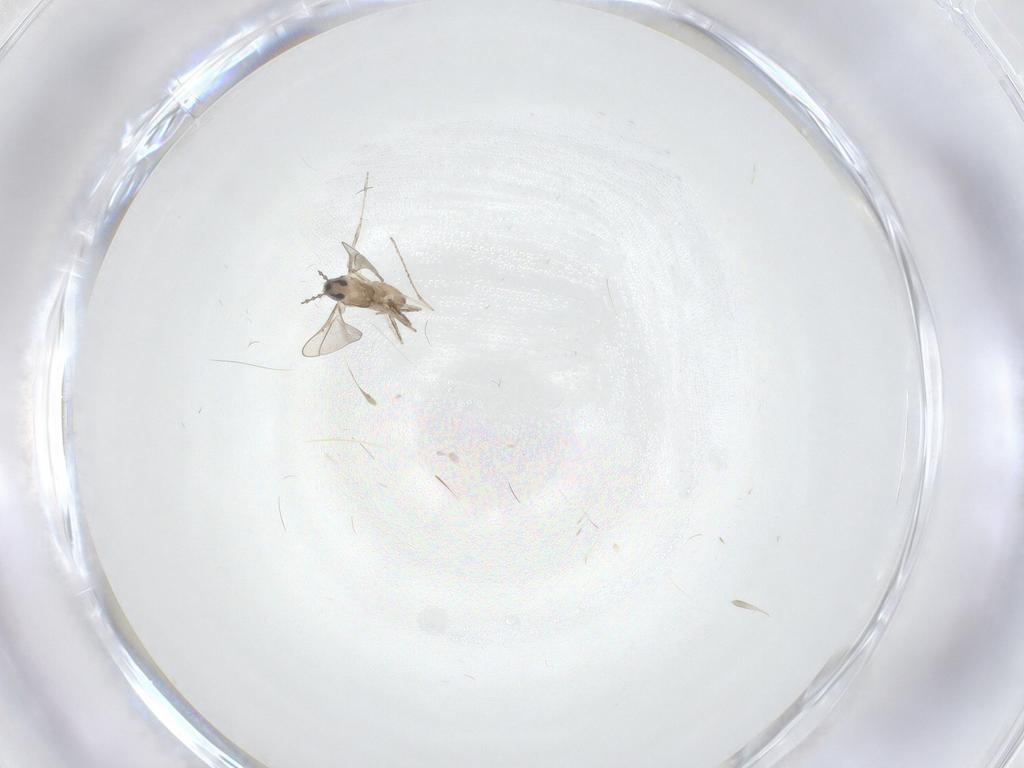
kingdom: Animalia
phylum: Arthropoda
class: Insecta
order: Diptera
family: Cecidomyiidae
